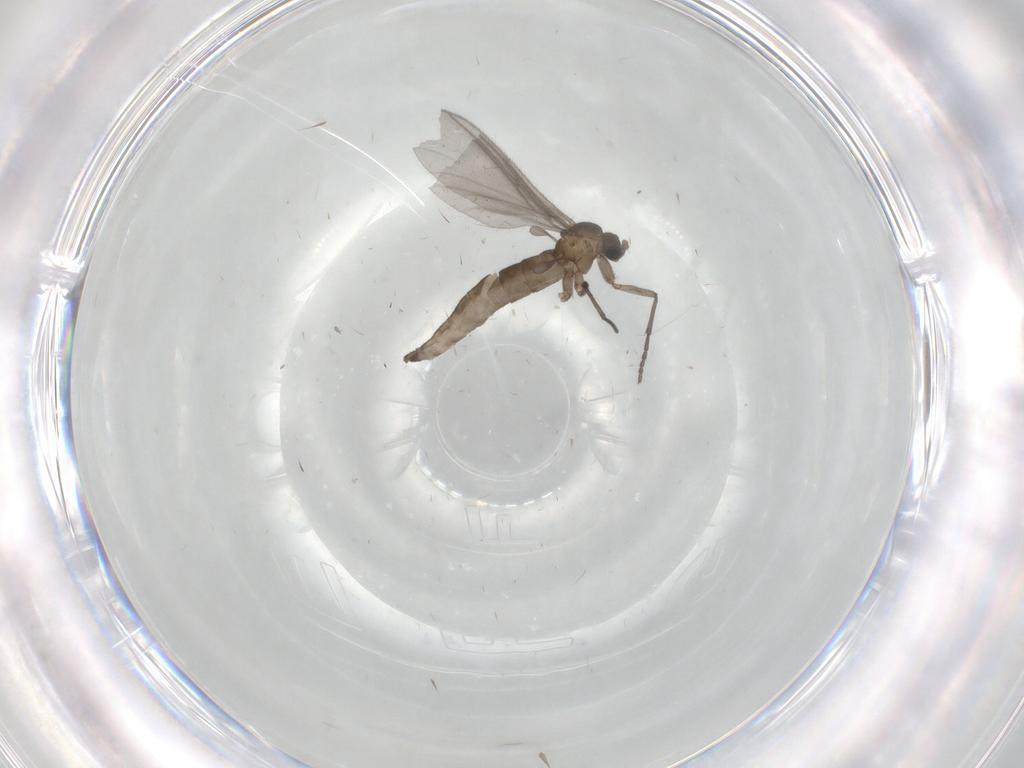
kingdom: Animalia
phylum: Arthropoda
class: Insecta
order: Diptera
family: Sciaridae
